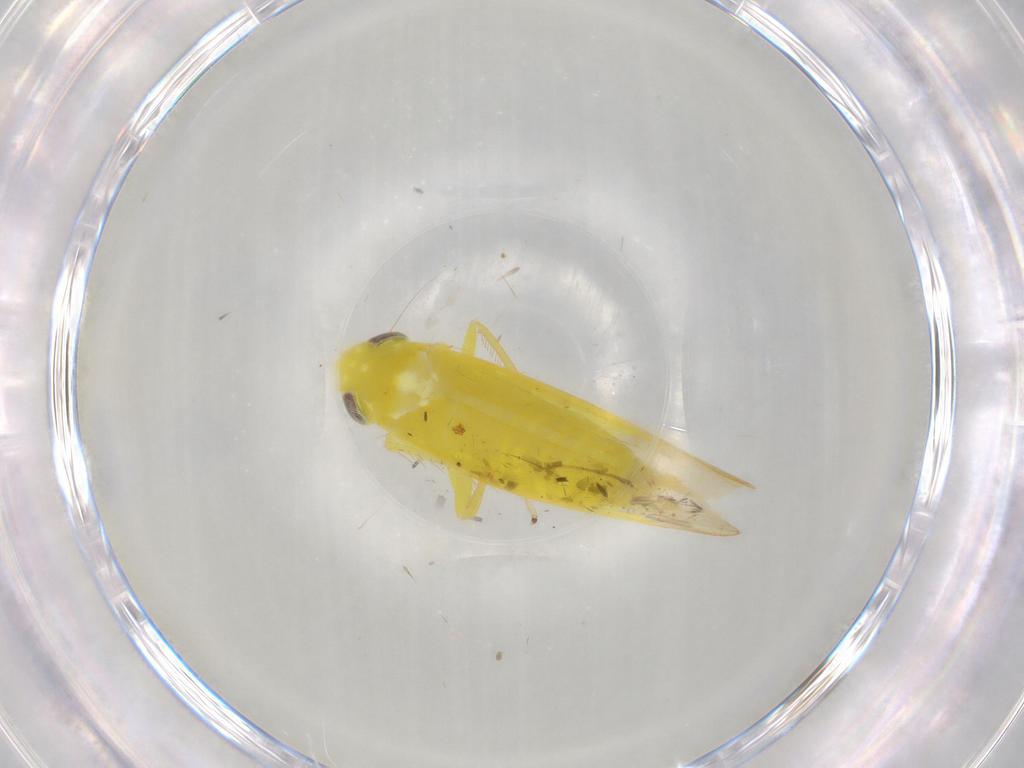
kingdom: Animalia
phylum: Arthropoda
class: Insecta
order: Hemiptera
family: Cicadellidae
